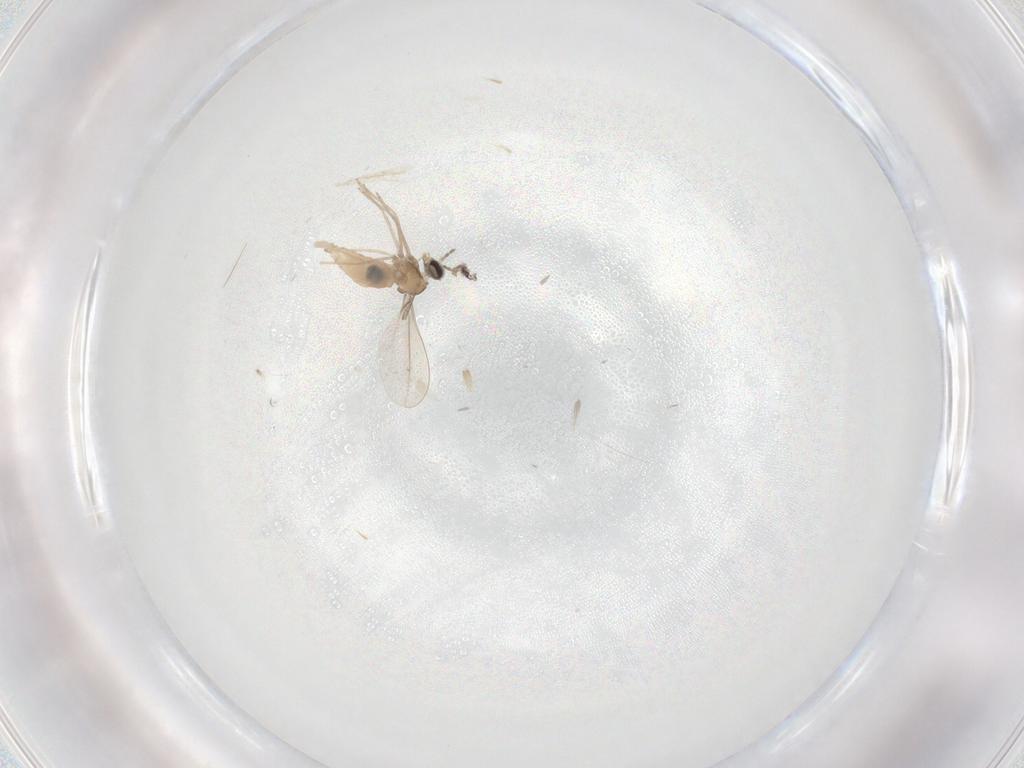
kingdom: Animalia
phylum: Arthropoda
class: Insecta
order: Diptera
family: Cecidomyiidae
